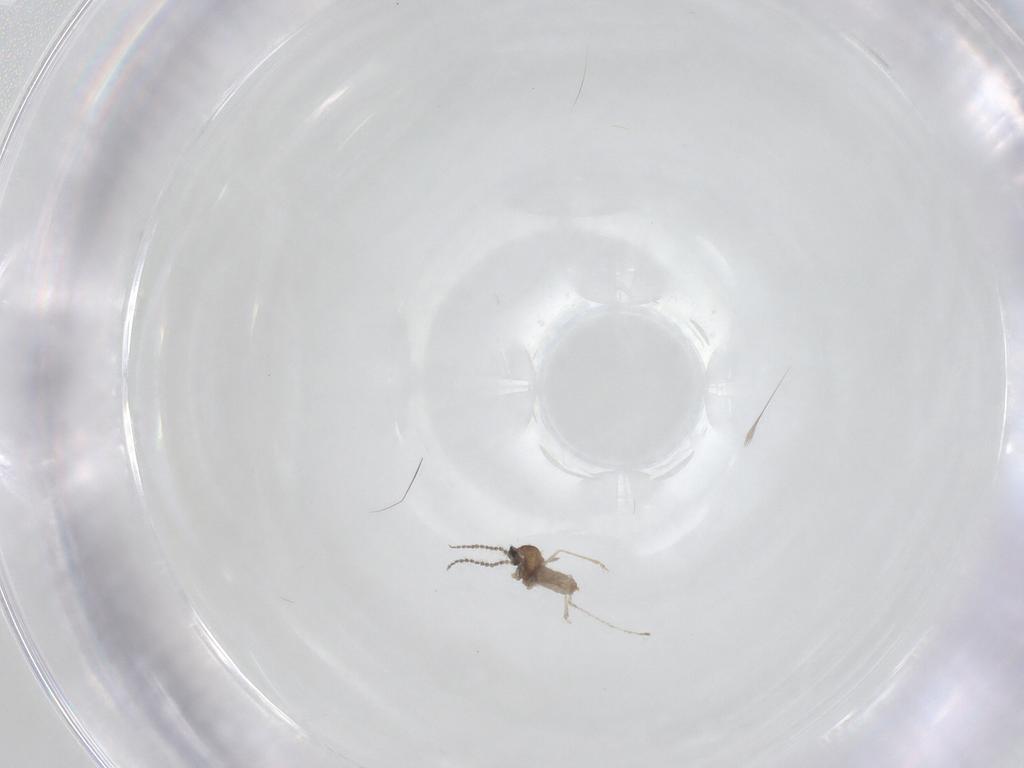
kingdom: Animalia
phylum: Arthropoda
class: Insecta
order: Diptera
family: Chironomidae
